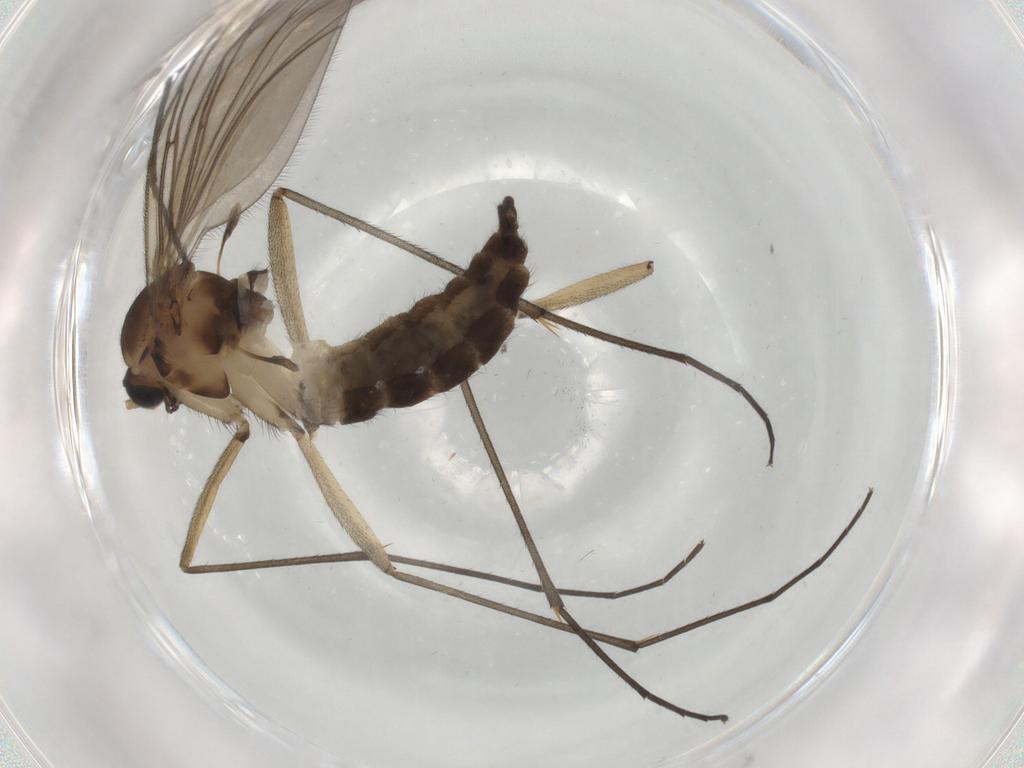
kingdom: Animalia
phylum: Arthropoda
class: Insecta
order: Diptera
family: Sciaridae
